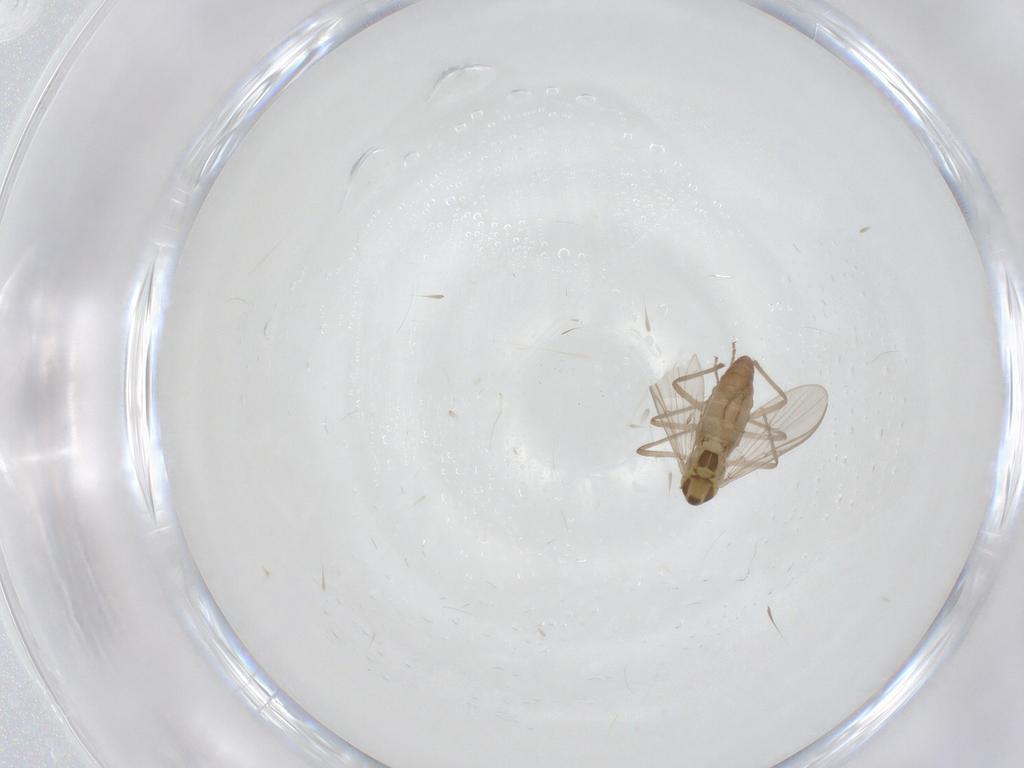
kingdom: Animalia
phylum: Arthropoda
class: Insecta
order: Diptera
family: Chironomidae
